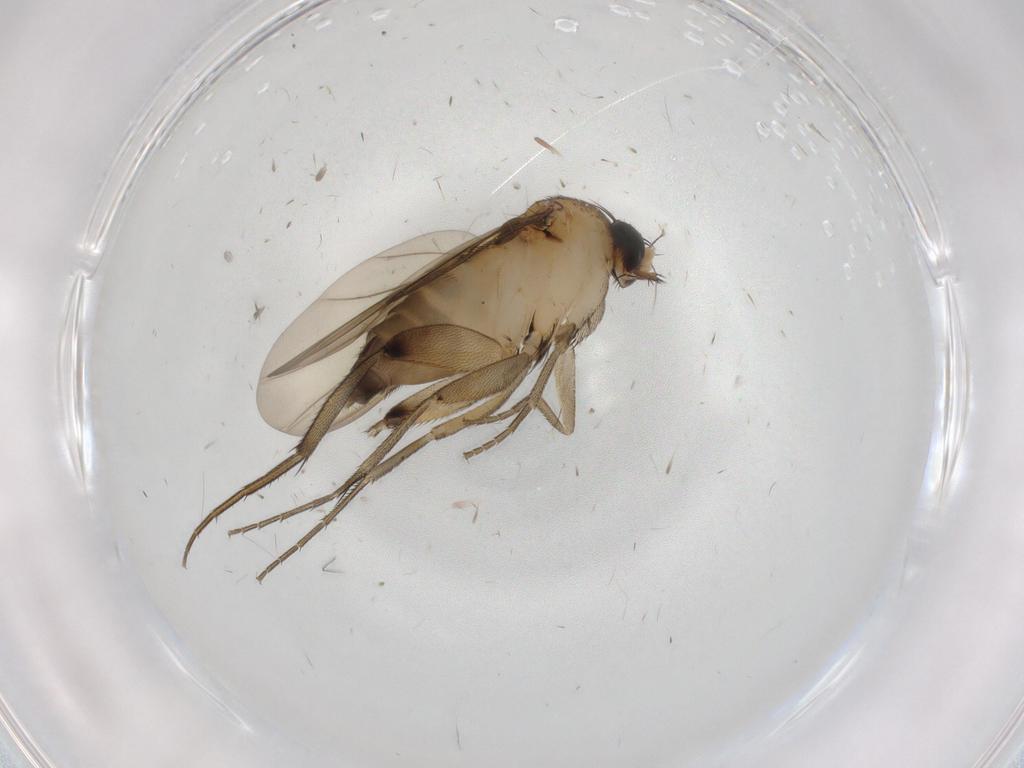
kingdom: Animalia
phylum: Arthropoda
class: Insecta
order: Diptera
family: Phoridae
